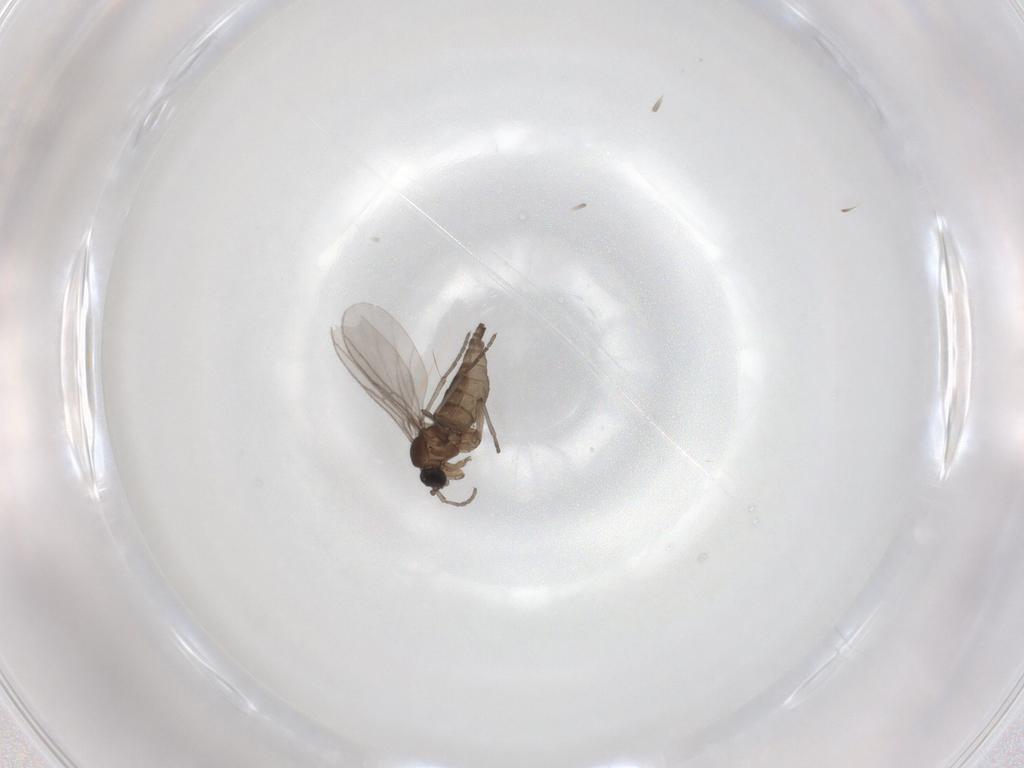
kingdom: Animalia
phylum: Arthropoda
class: Insecta
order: Diptera
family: Sciaridae
